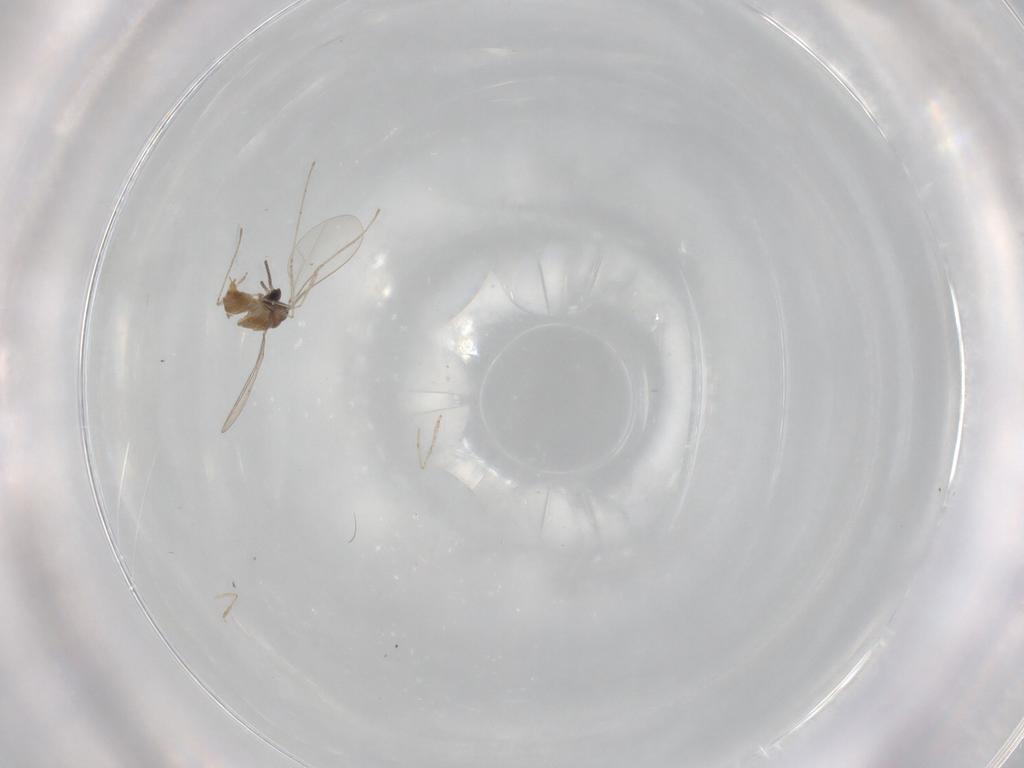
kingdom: Animalia
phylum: Arthropoda
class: Insecta
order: Diptera
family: Cecidomyiidae
